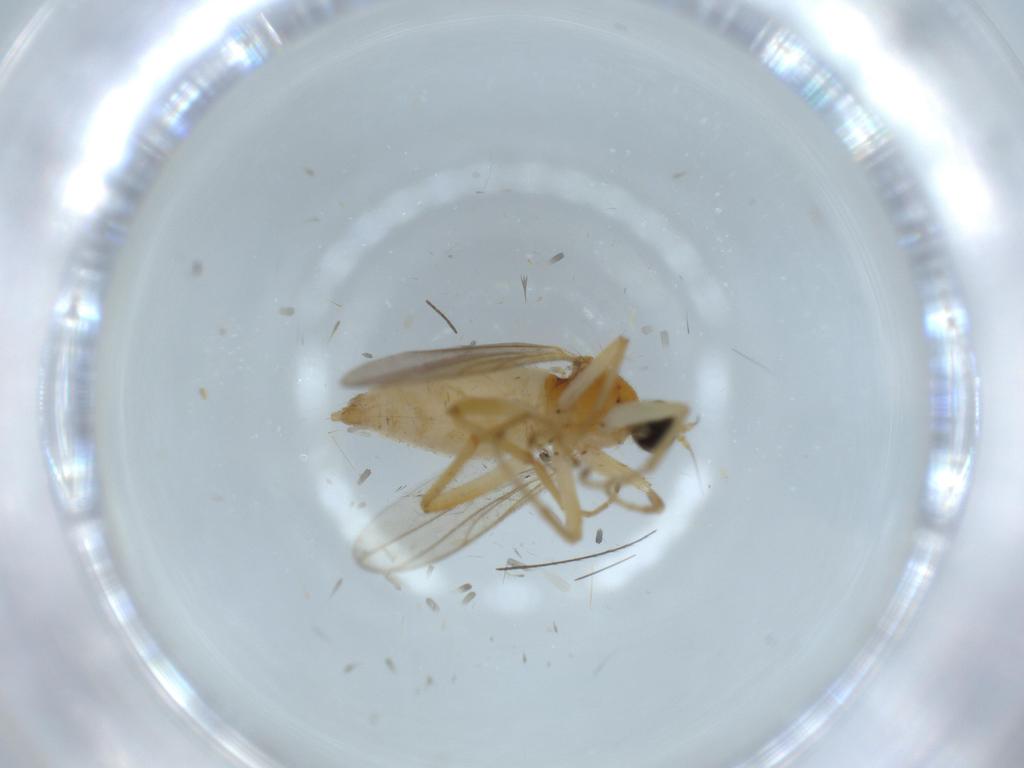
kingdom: Animalia
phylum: Arthropoda
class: Insecta
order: Diptera
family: Hybotidae
